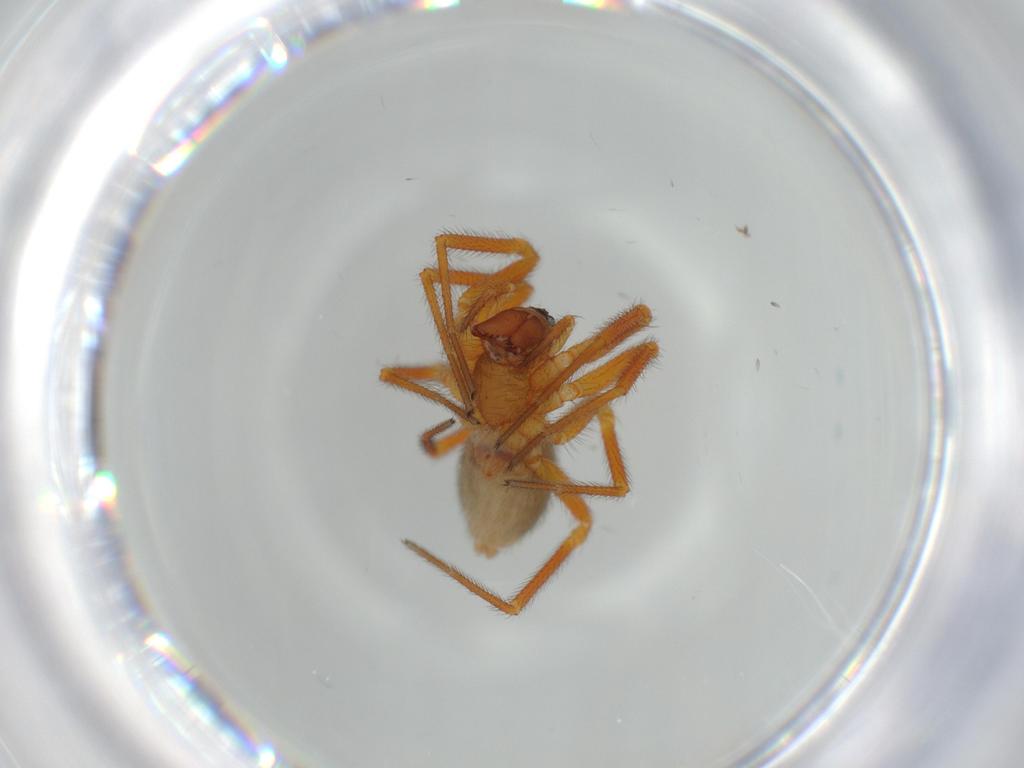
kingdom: Animalia
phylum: Arthropoda
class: Arachnida
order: Araneae
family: Linyphiidae
